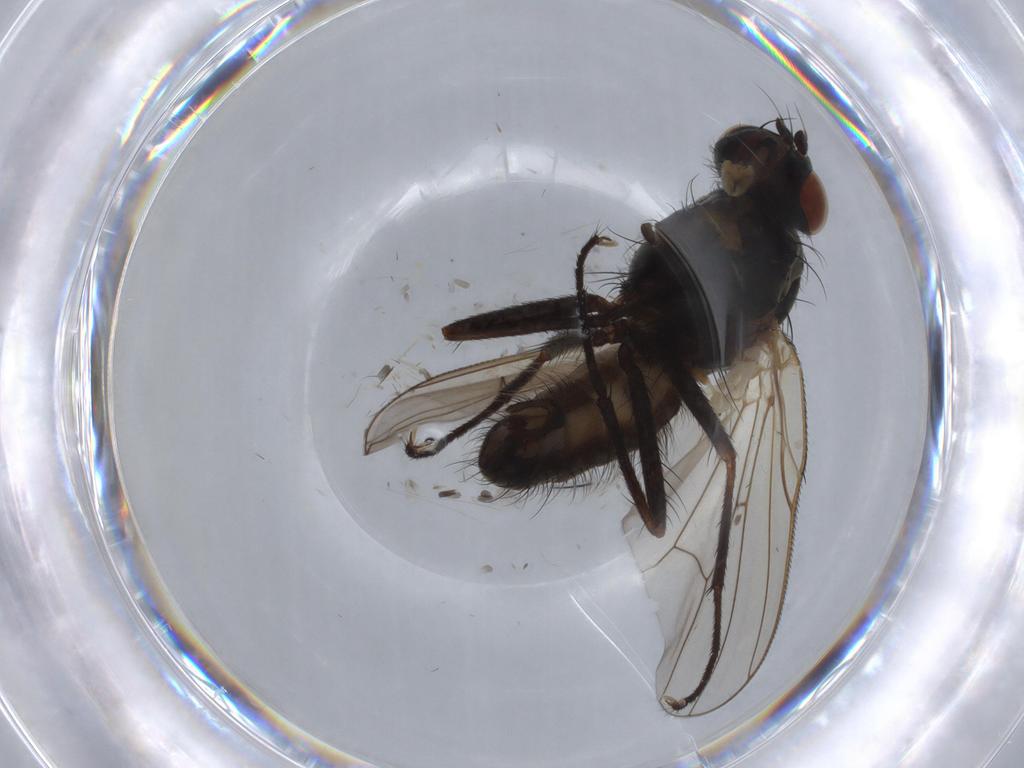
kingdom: Animalia
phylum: Arthropoda
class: Insecta
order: Diptera
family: Anthomyiidae
